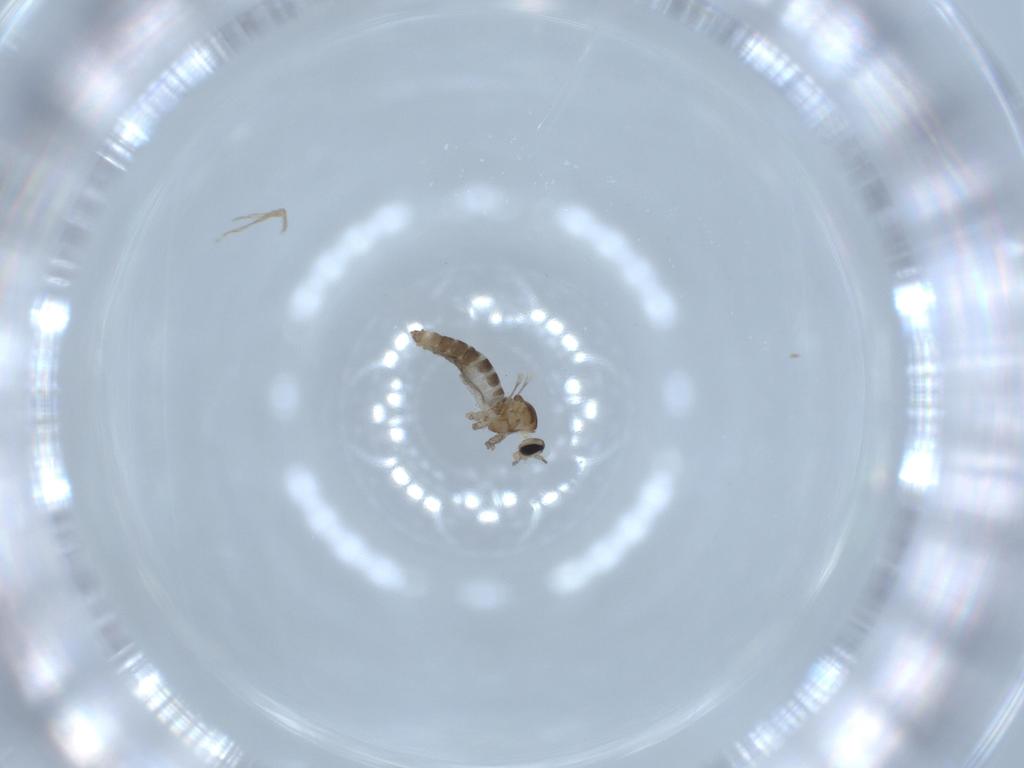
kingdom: Animalia
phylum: Arthropoda
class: Insecta
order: Diptera
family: Cecidomyiidae
